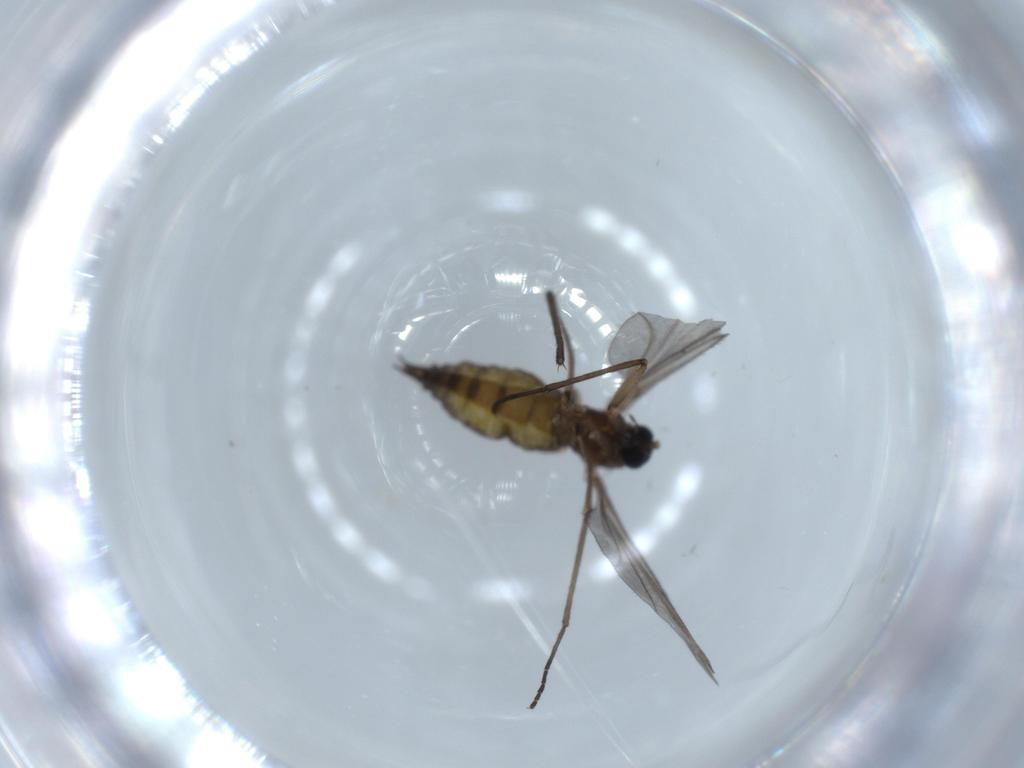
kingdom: Animalia
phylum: Arthropoda
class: Insecta
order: Diptera
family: Sciaridae
